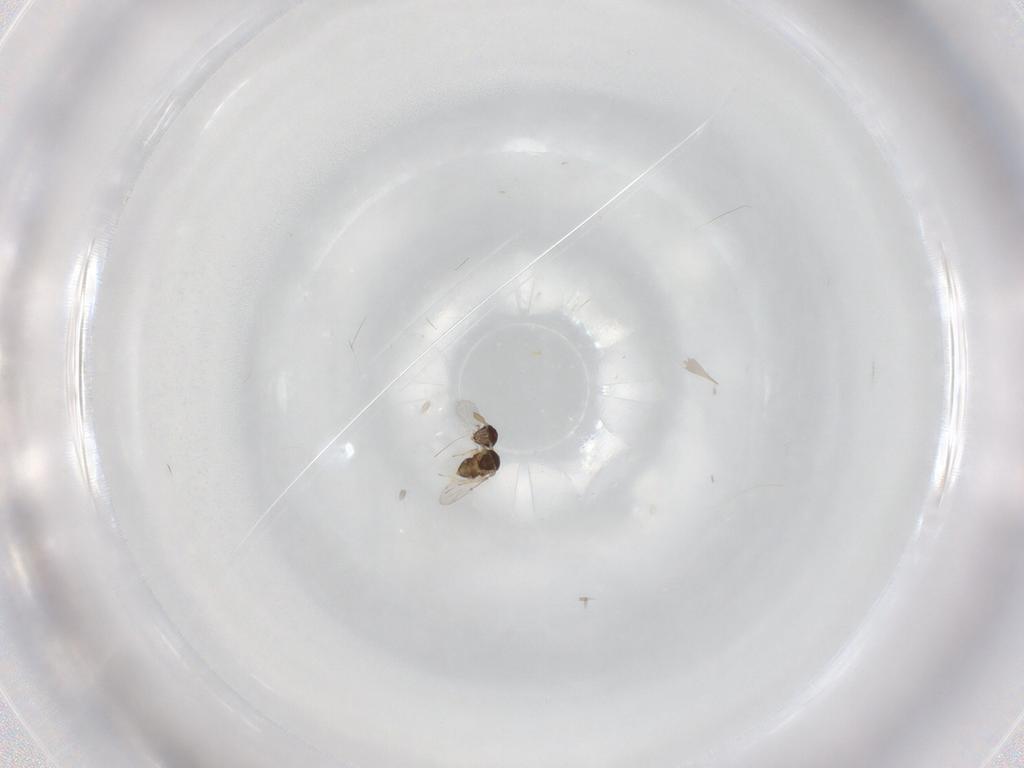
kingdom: Animalia
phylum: Arthropoda
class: Insecta
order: Hymenoptera
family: Encyrtidae
